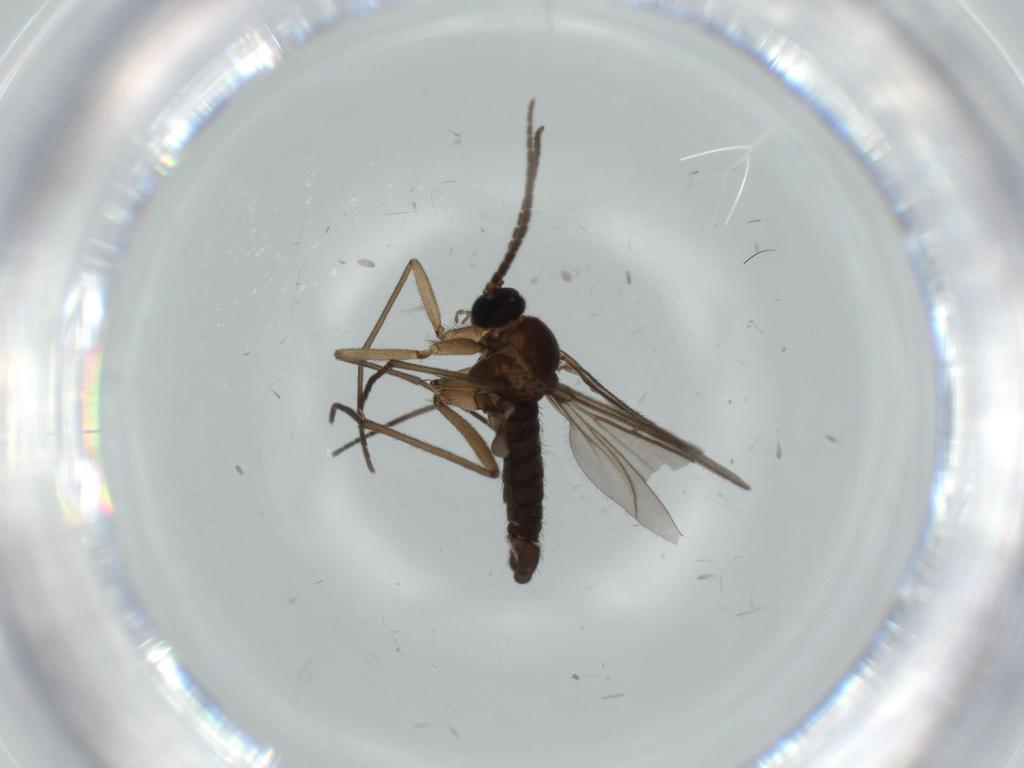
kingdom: Animalia
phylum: Arthropoda
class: Insecta
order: Diptera
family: Sciaridae
